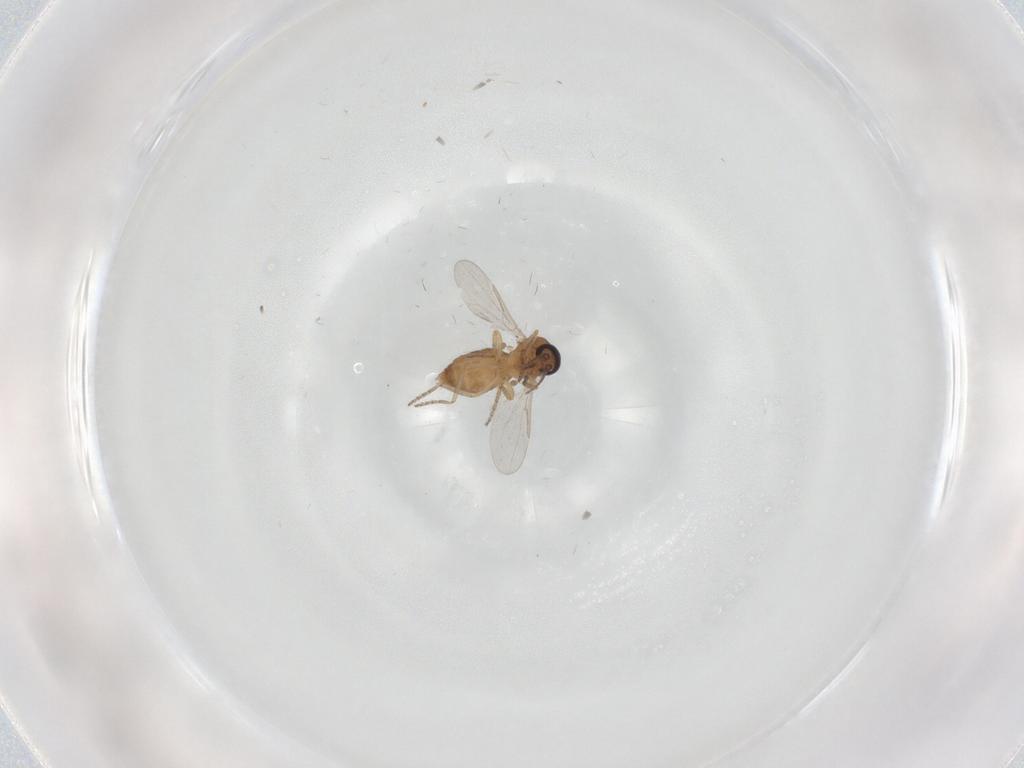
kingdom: Animalia
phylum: Arthropoda
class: Insecta
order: Diptera
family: Ceratopogonidae
